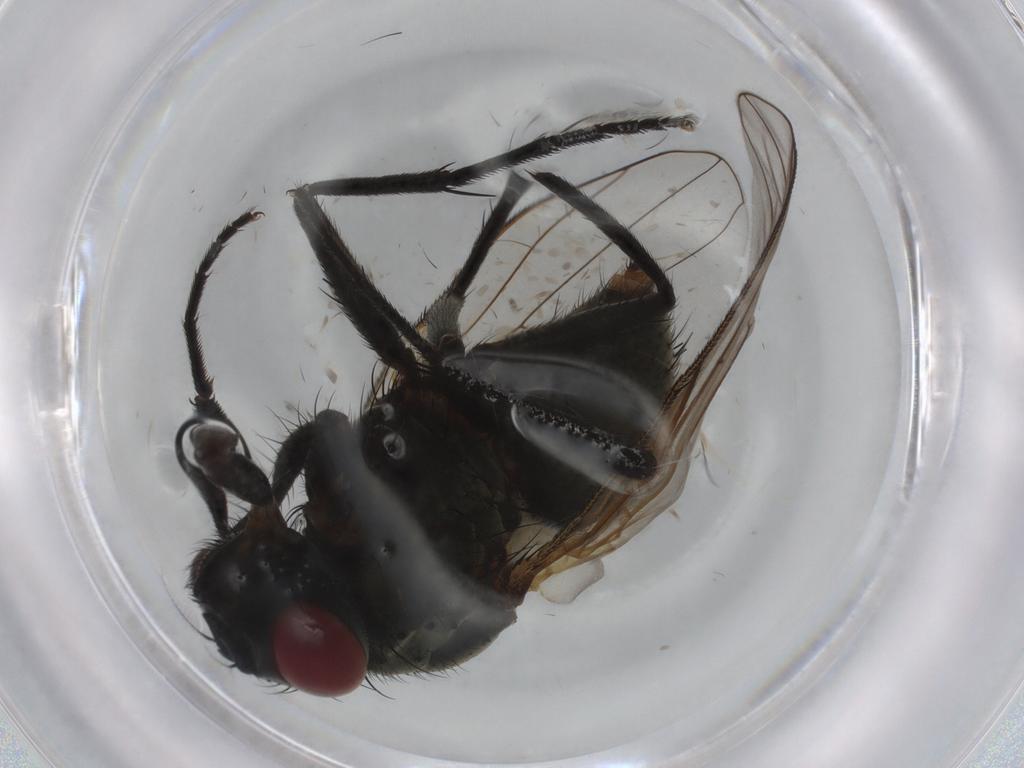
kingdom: Animalia
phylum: Arthropoda
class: Insecta
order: Diptera
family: Muscidae
